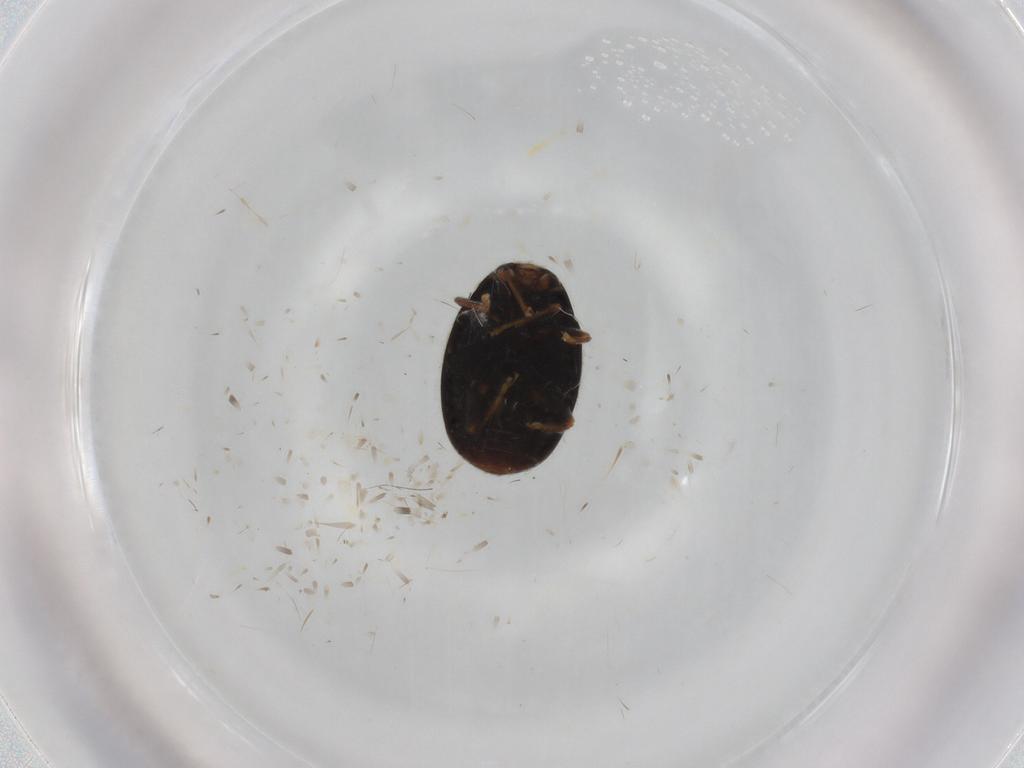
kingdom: Animalia
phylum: Arthropoda
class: Insecta
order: Coleoptera
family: Coccinellidae
